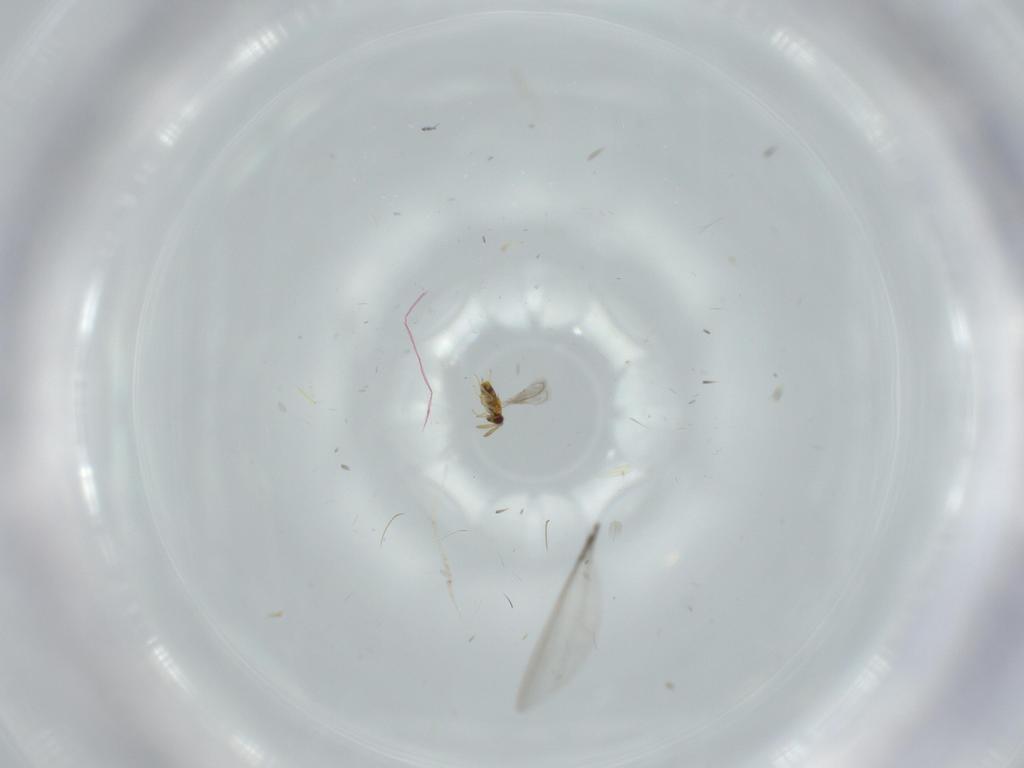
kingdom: Animalia
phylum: Arthropoda
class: Insecta
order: Hymenoptera
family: Aphelinidae
